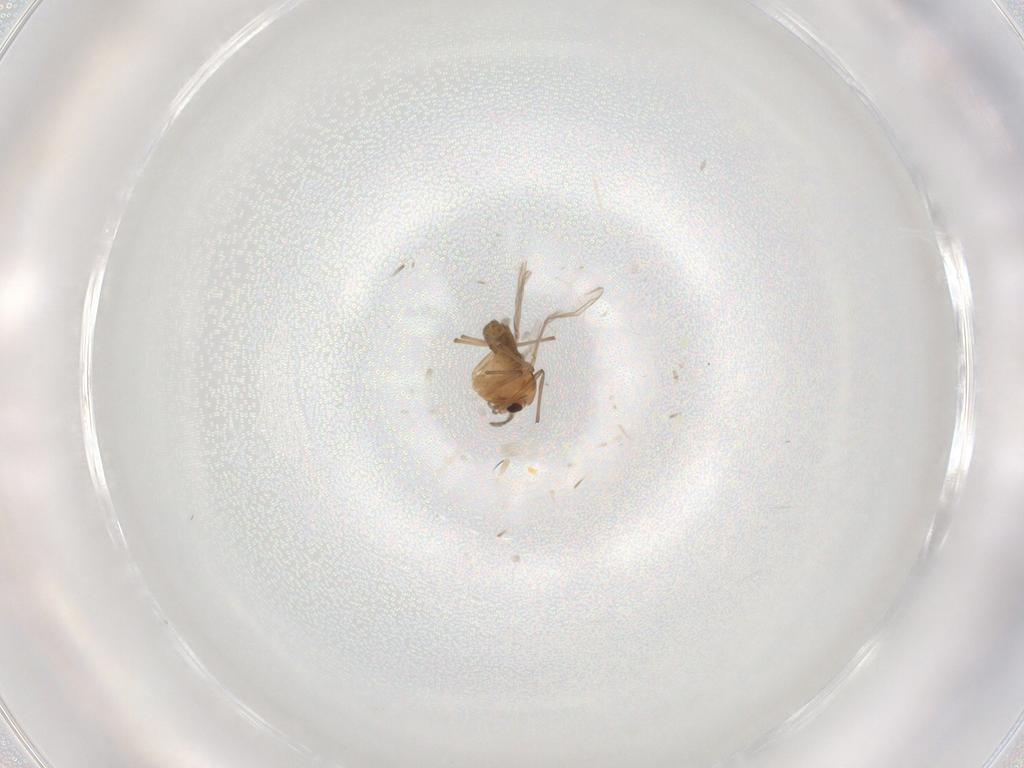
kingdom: Animalia
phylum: Arthropoda
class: Insecta
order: Diptera
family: Chironomidae
